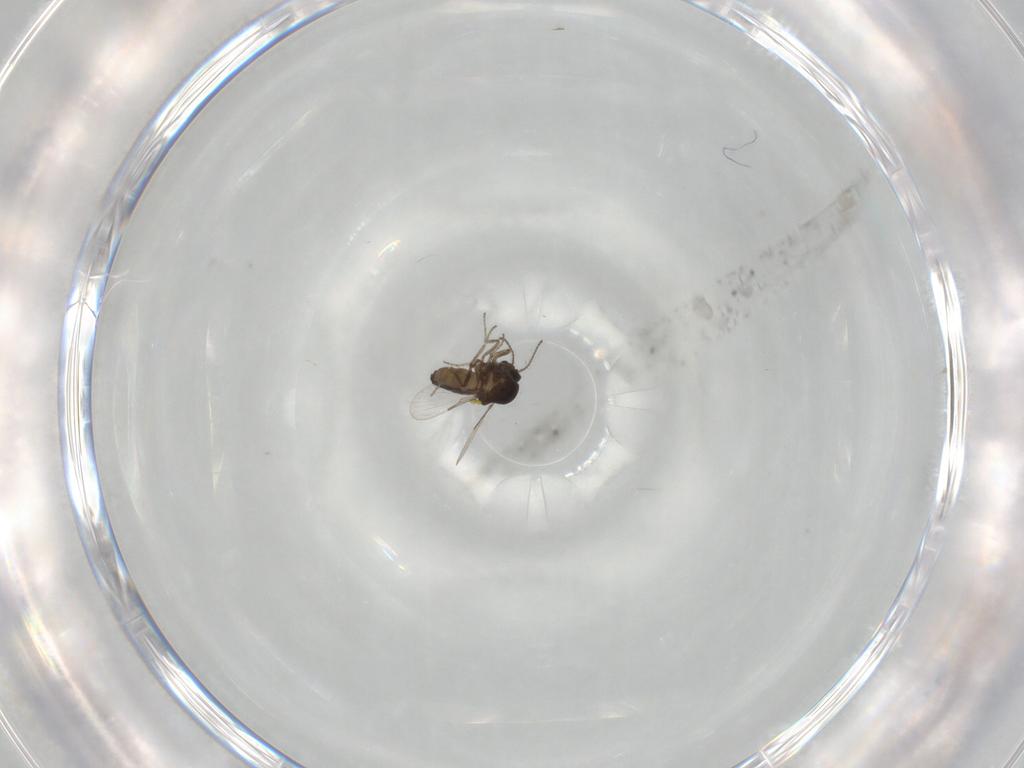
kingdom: Animalia
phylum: Arthropoda
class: Insecta
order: Diptera
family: Ceratopogonidae
